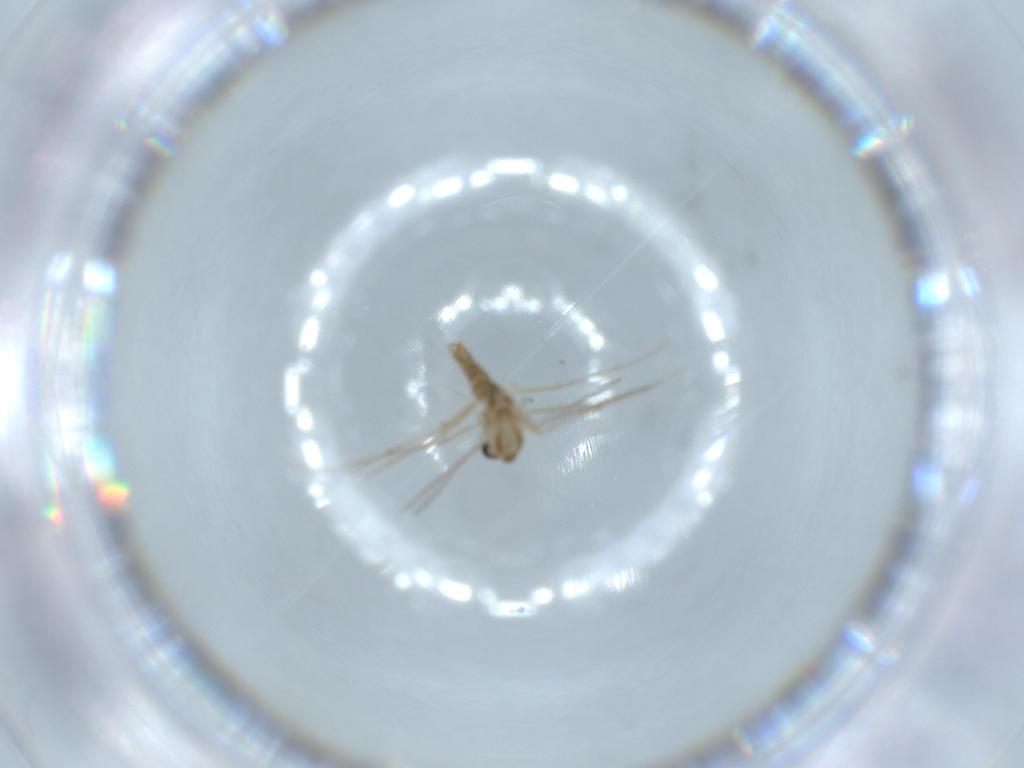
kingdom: Animalia
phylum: Arthropoda
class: Insecta
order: Diptera
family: Chironomidae
